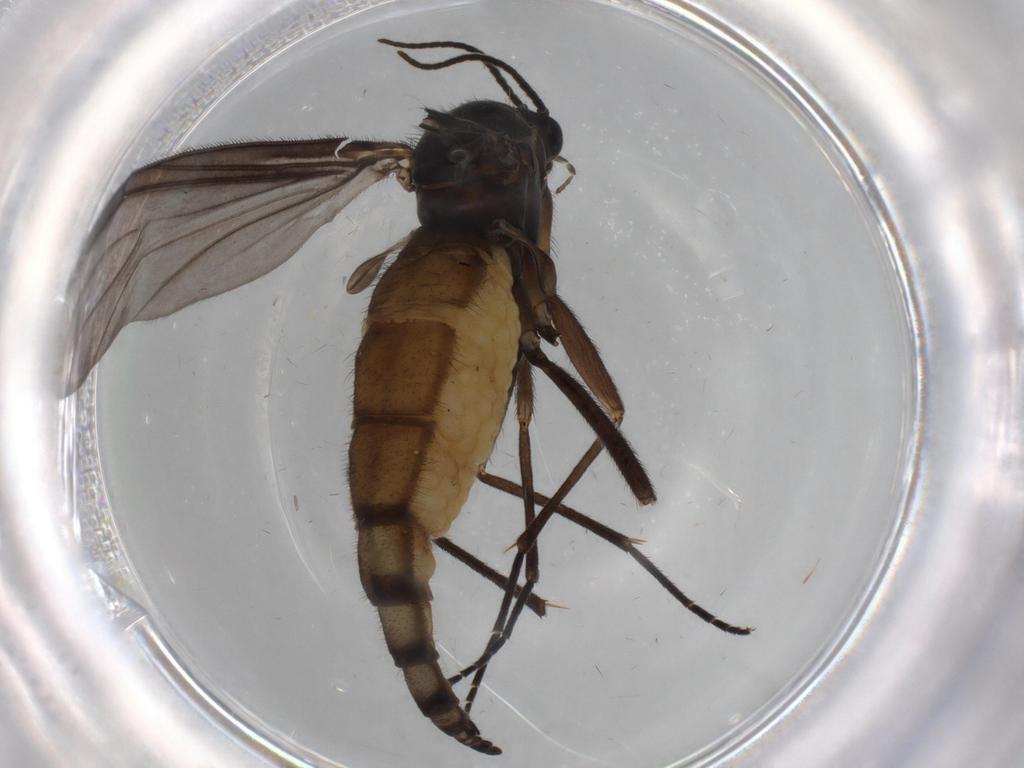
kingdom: Animalia
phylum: Arthropoda
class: Insecta
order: Diptera
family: Sciaridae
